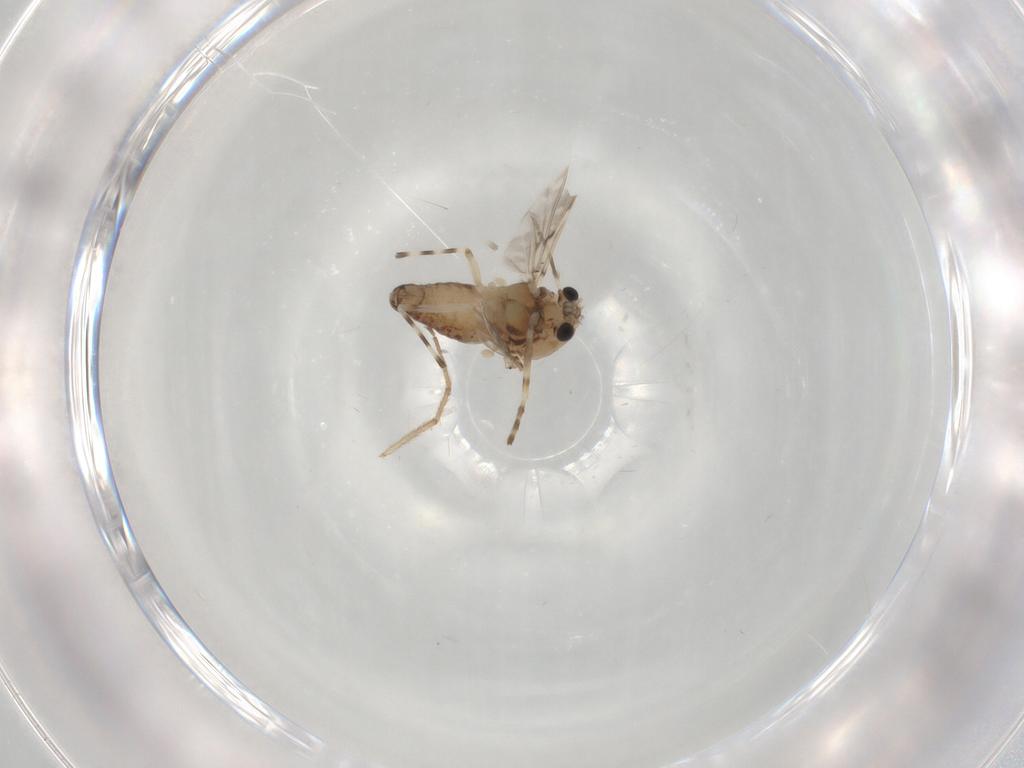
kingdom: Animalia
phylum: Arthropoda
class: Insecta
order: Diptera
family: Chironomidae
